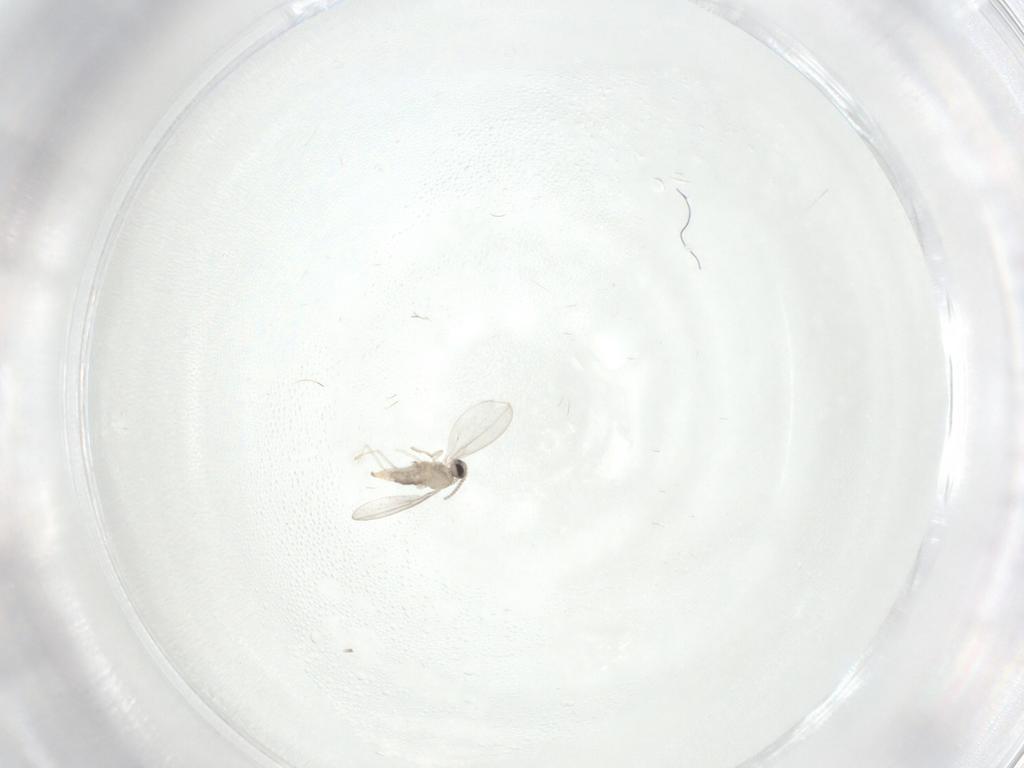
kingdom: Animalia
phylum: Arthropoda
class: Insecta
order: Diptera
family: Cecidomyiidae
